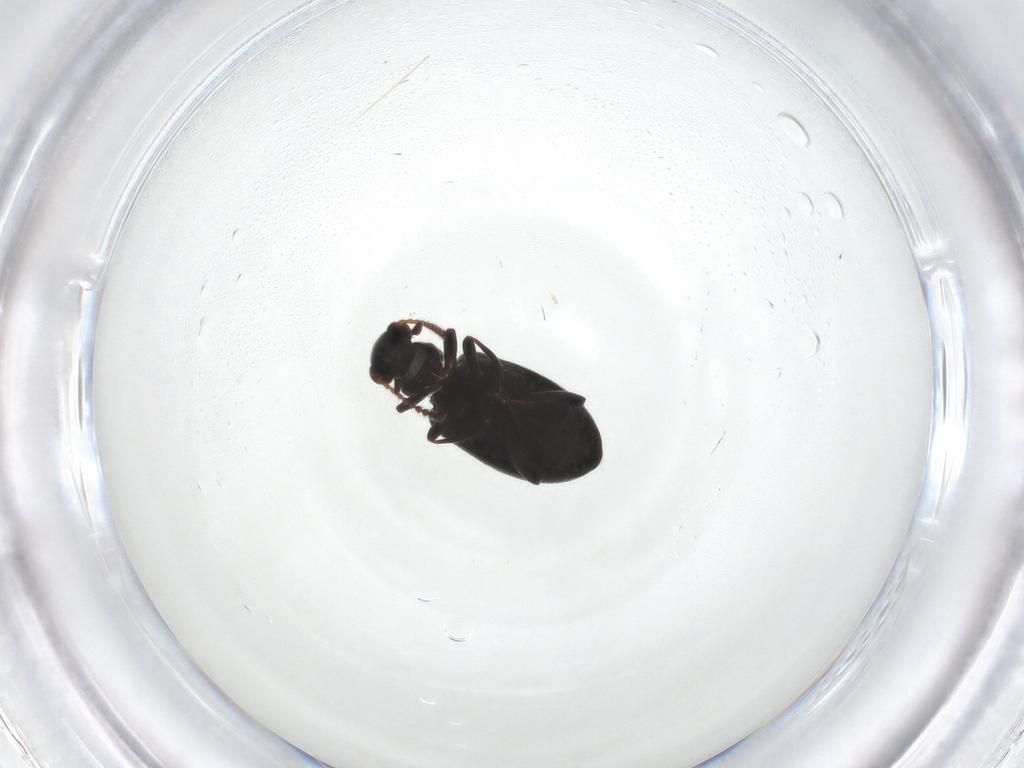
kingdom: Animalia
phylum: Arthropoda
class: Insecta
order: Coleoptera
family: Aderidae
